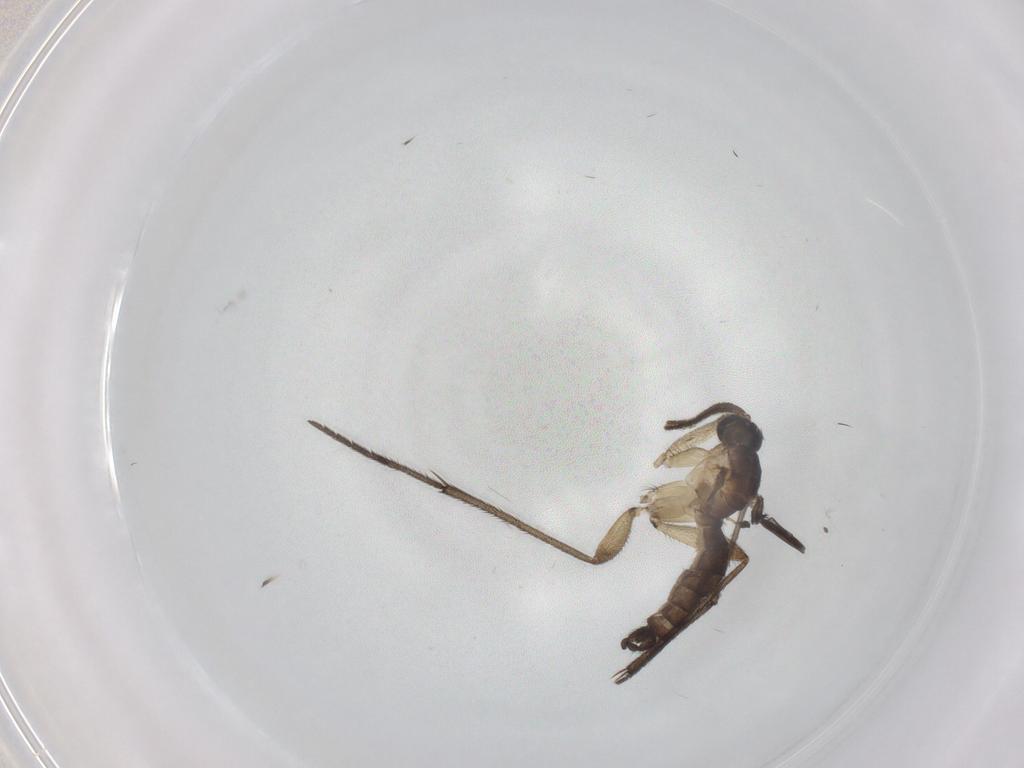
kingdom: Animalia
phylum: Arthropoda
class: Insecta
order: Diptera
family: Sciaridae
